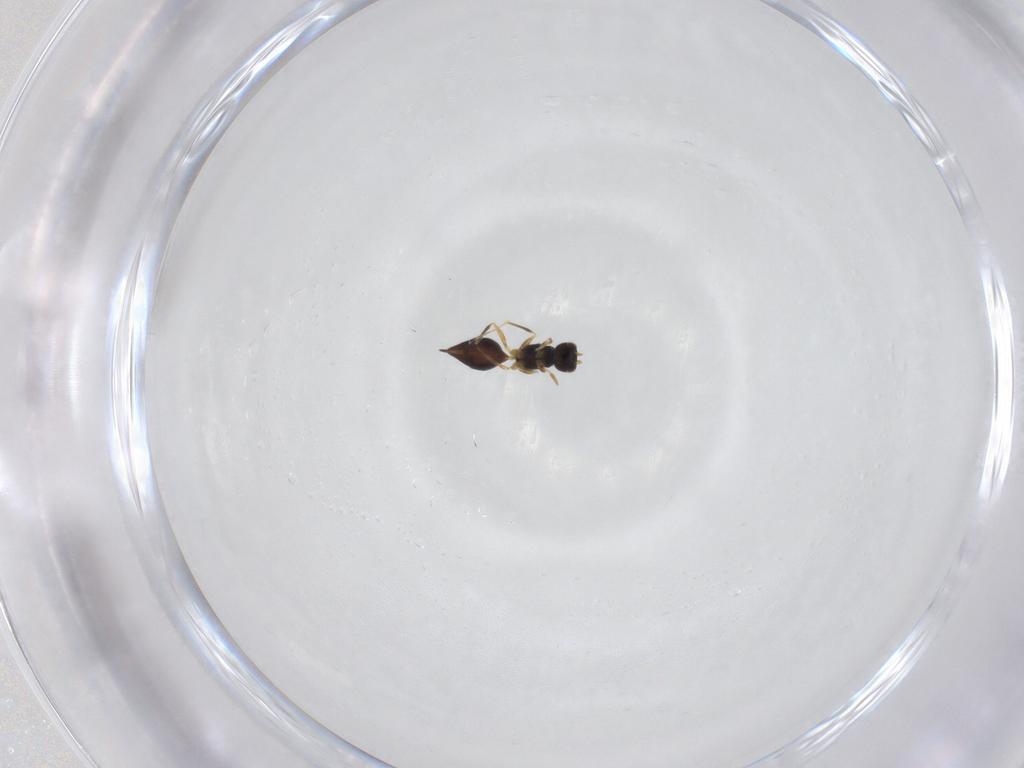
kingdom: Animalia
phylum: Arthropoda
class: Insecta
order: Hymenoptera
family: Mymaridae
